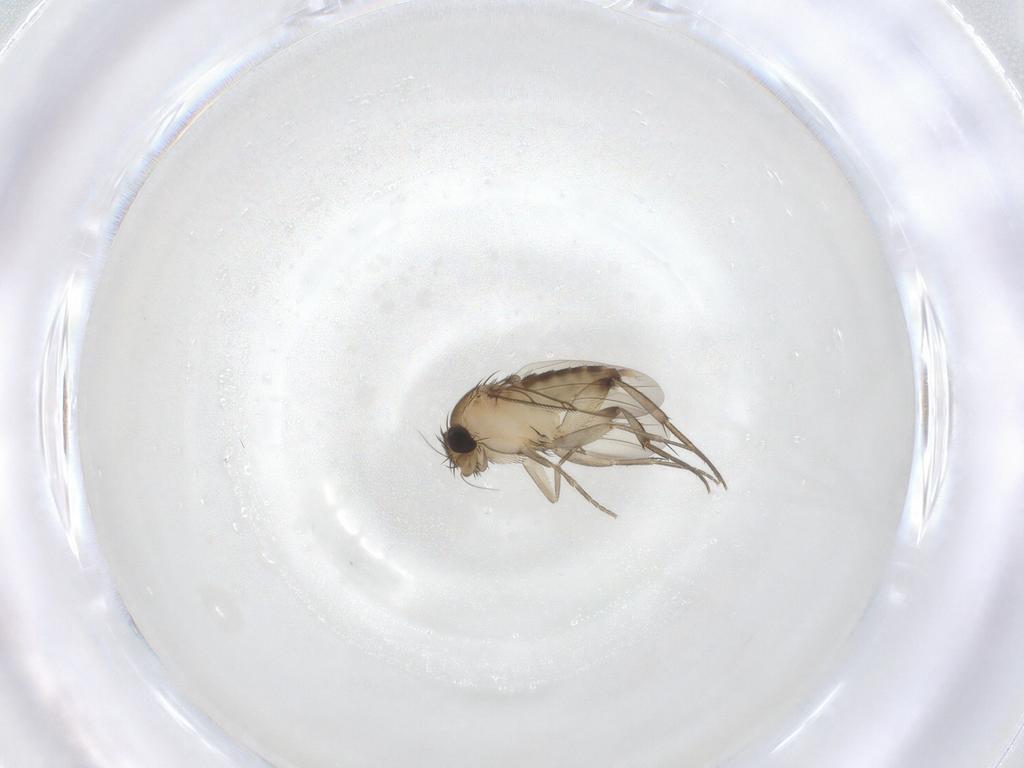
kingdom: Animalia
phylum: Arthropoda
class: Insecta
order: Diptera
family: Phoridae
